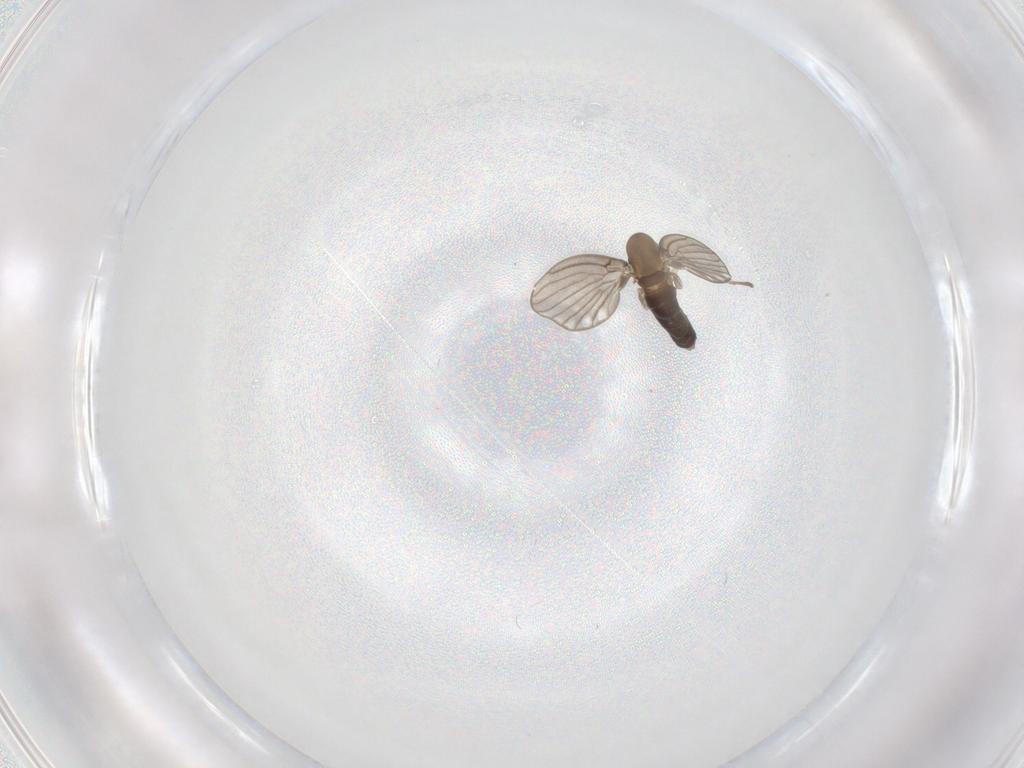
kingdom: Animalia
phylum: Arthropoda
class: Insecta
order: Diptera
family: Psychodidae
